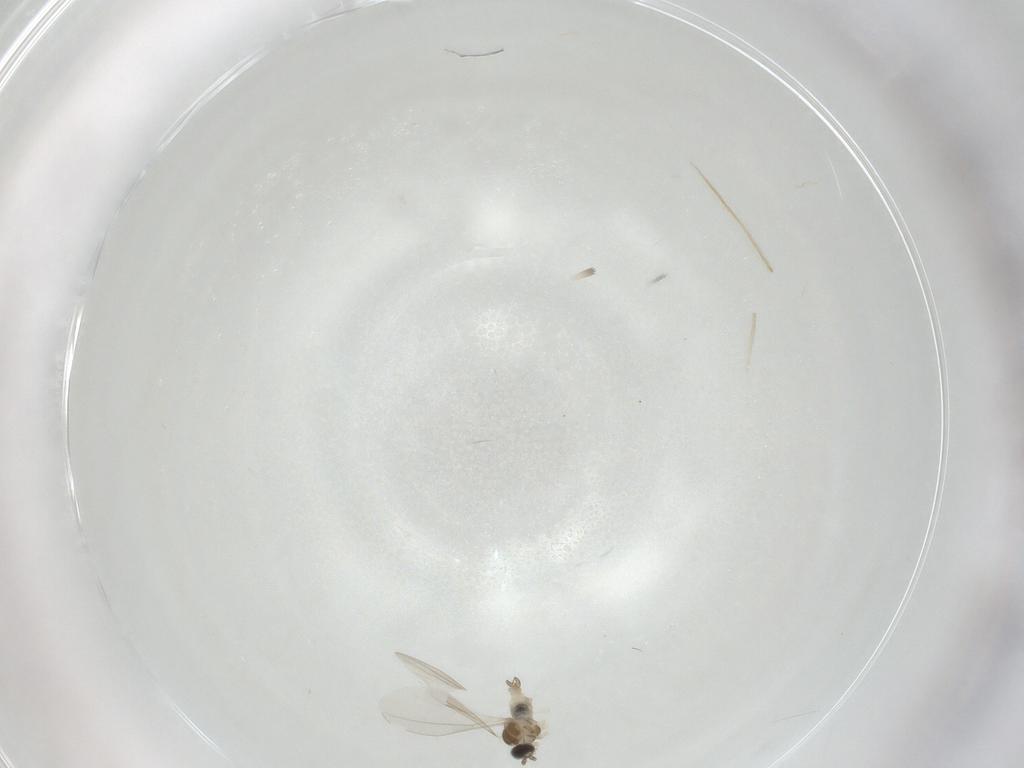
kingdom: Animalia
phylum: Arthropoda
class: Insecta
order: Diptera
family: Cecidomyiidae
